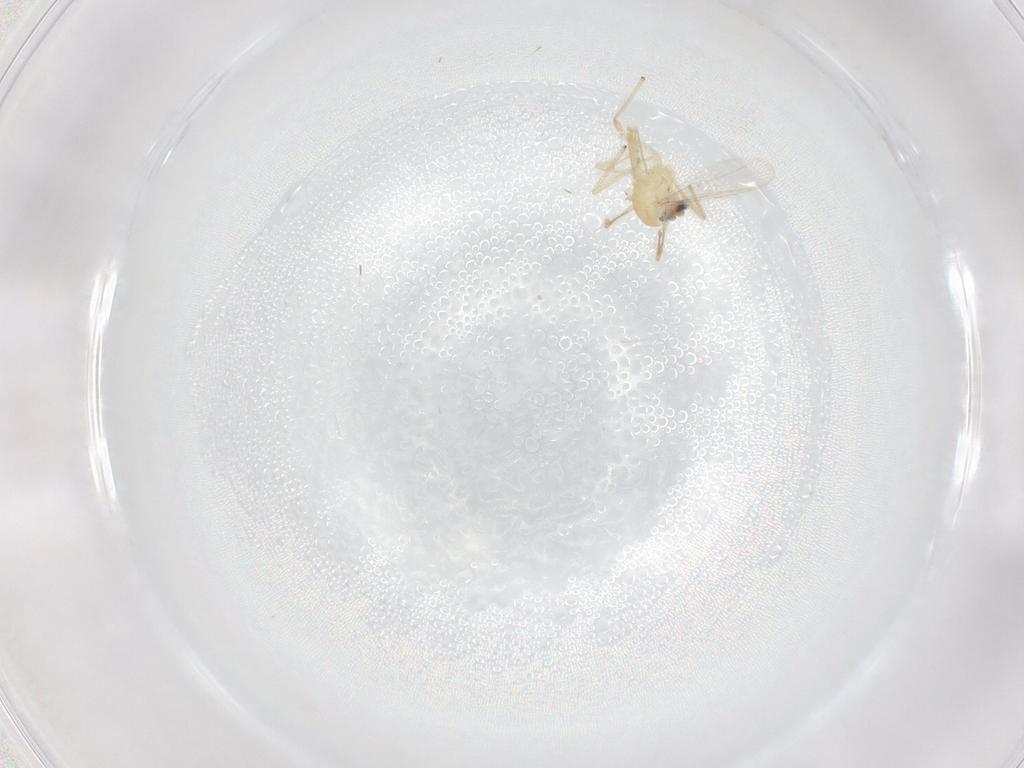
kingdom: Animalia
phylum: Arthropoda
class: Insecta
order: Diptera
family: Chironomidae
